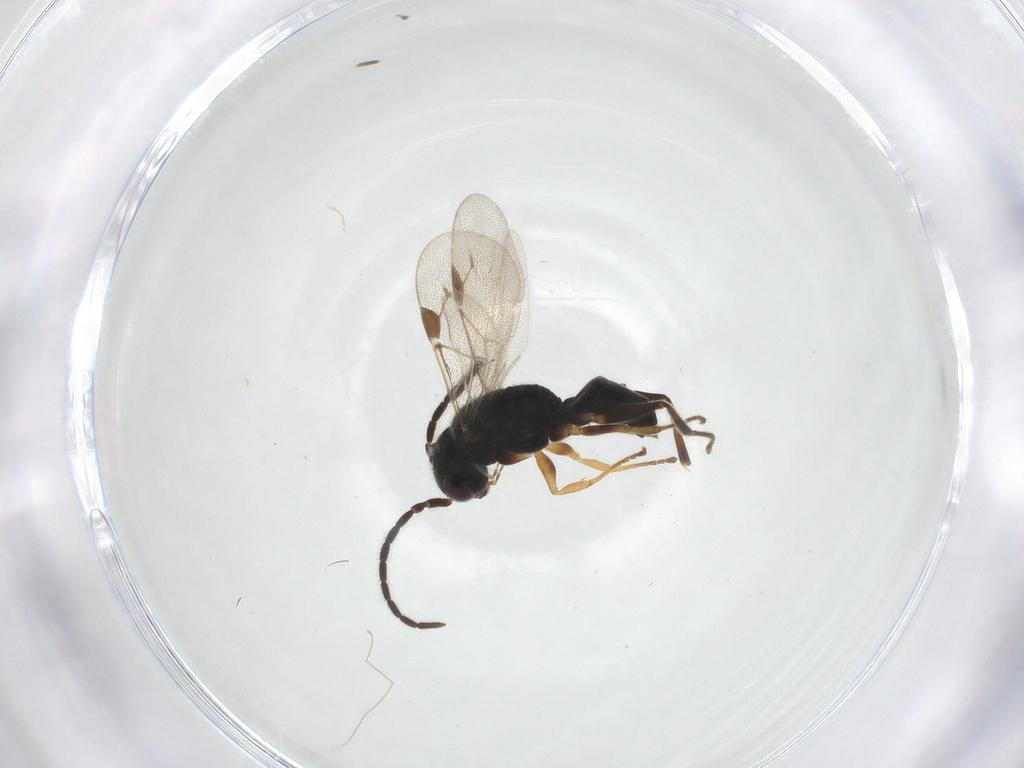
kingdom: Animalia
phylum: Arthropoda
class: Insecta
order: Hymenoptera
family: Dryinidae
